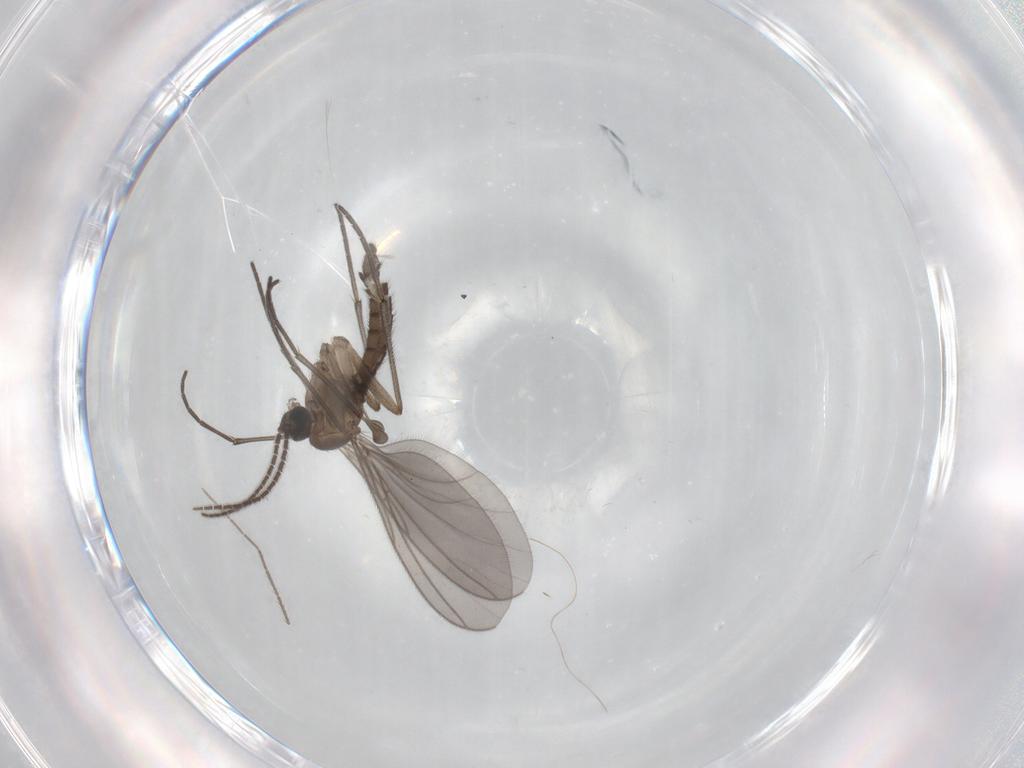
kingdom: Animalia
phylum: Arthropoda
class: Insecta
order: Diptera
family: Sciaridae
